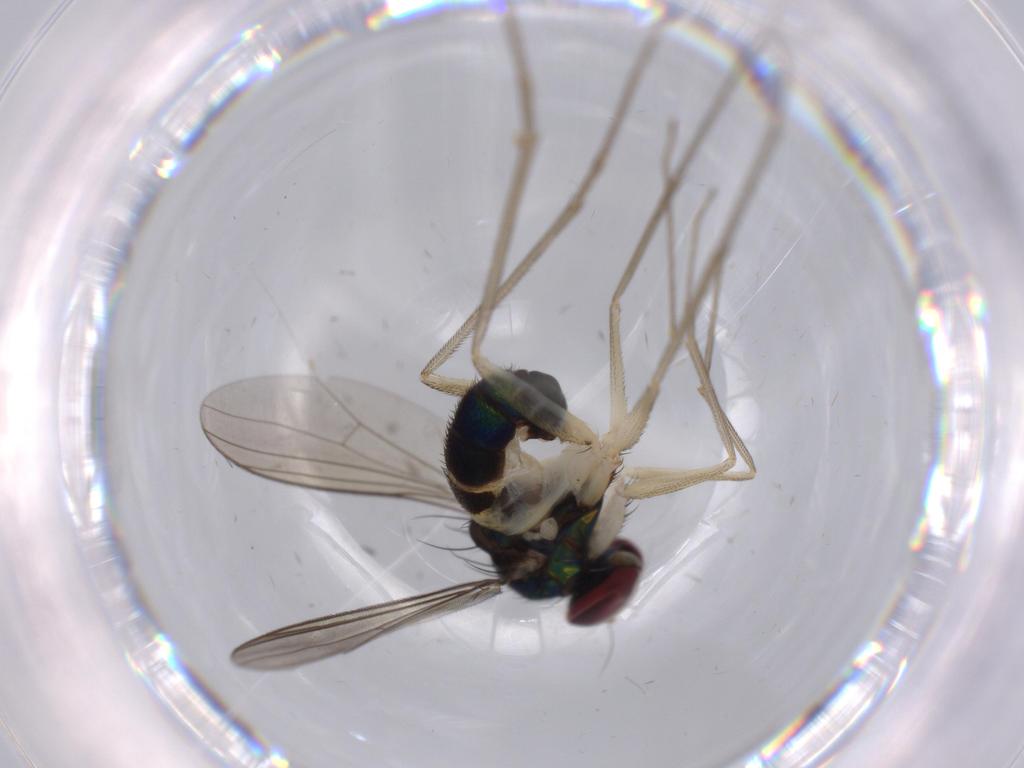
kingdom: Animalia
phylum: Arthropoda
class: Insecta
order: Diptera
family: Dolichopodidae
